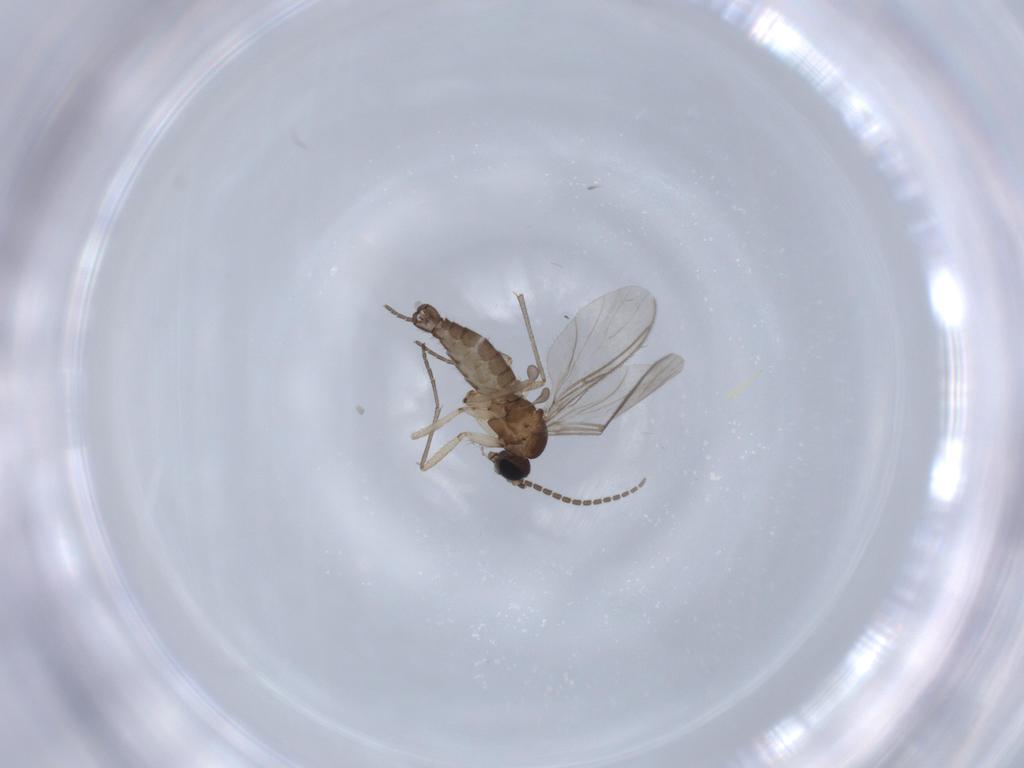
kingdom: Animalia
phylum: Arthropoda
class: Insecta
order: Diptera
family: Sciaridae
